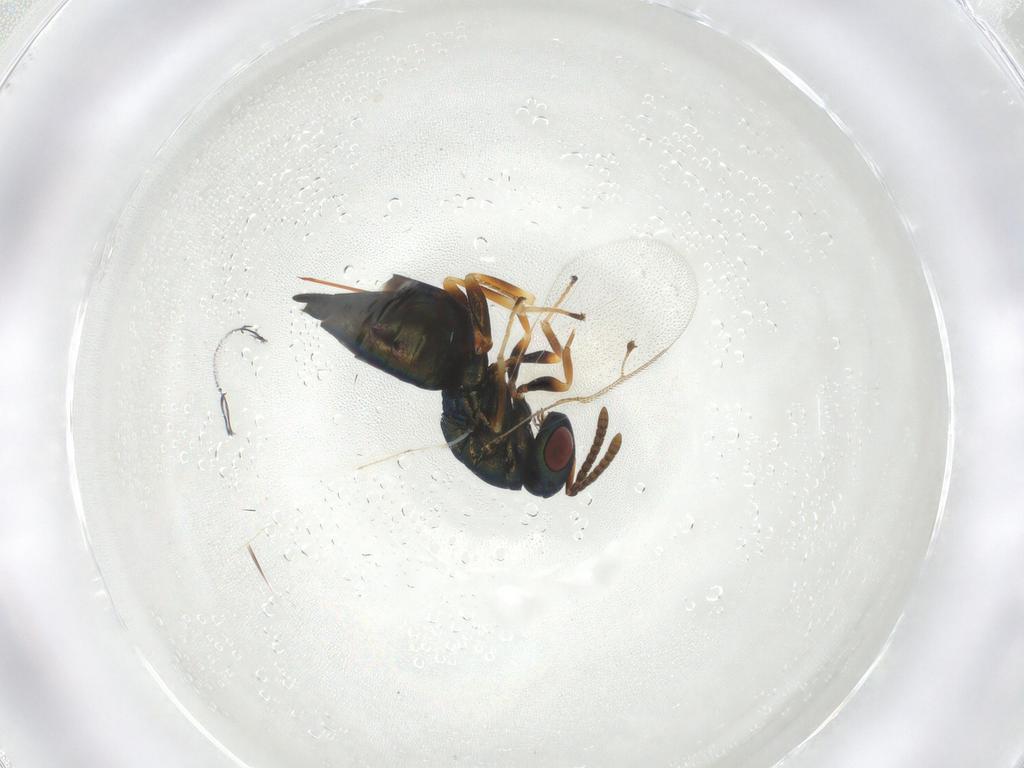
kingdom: Animalia
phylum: Arthropoda
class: Insecta
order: Hymenoptera
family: Pteromalidae
